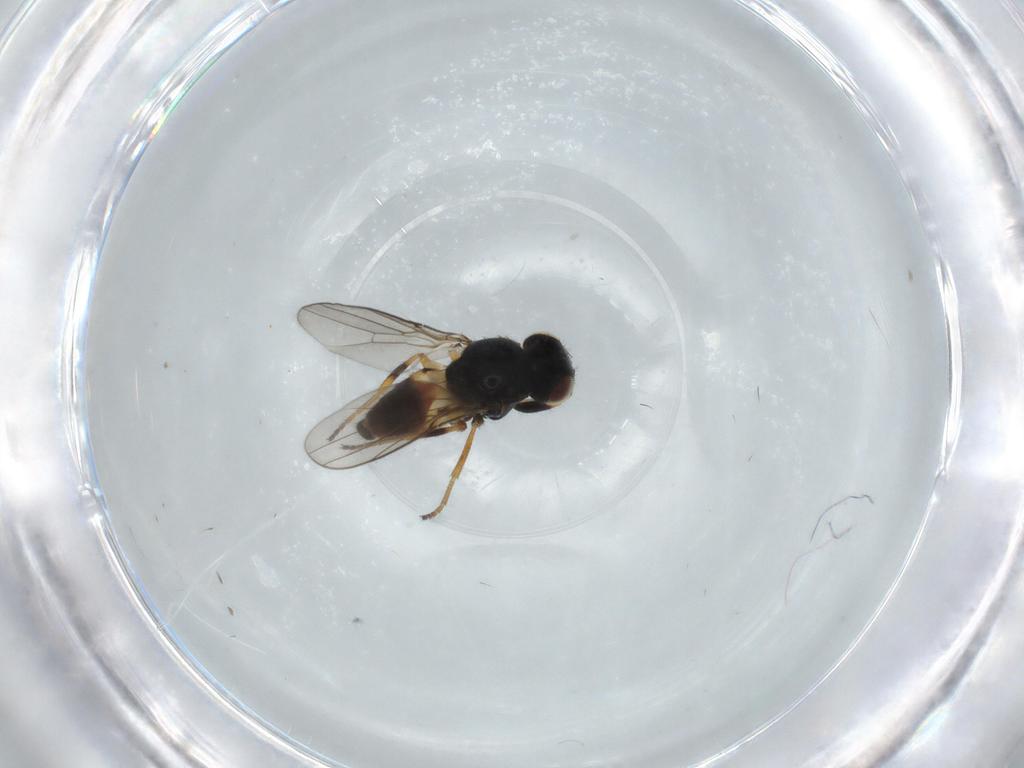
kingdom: Animalia
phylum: Arthropoda
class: Insecta
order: Diptera
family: Chloropidae
